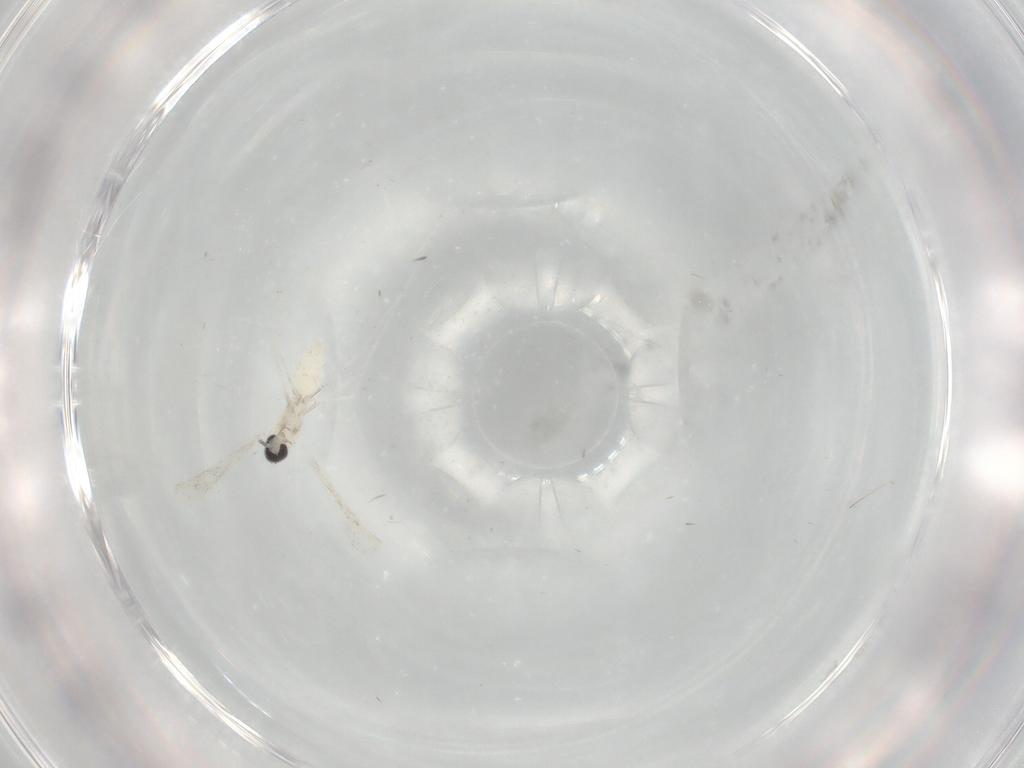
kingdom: Animalia
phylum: Arthropoda
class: Insecta
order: Diptera
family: Cecidomyiidae
